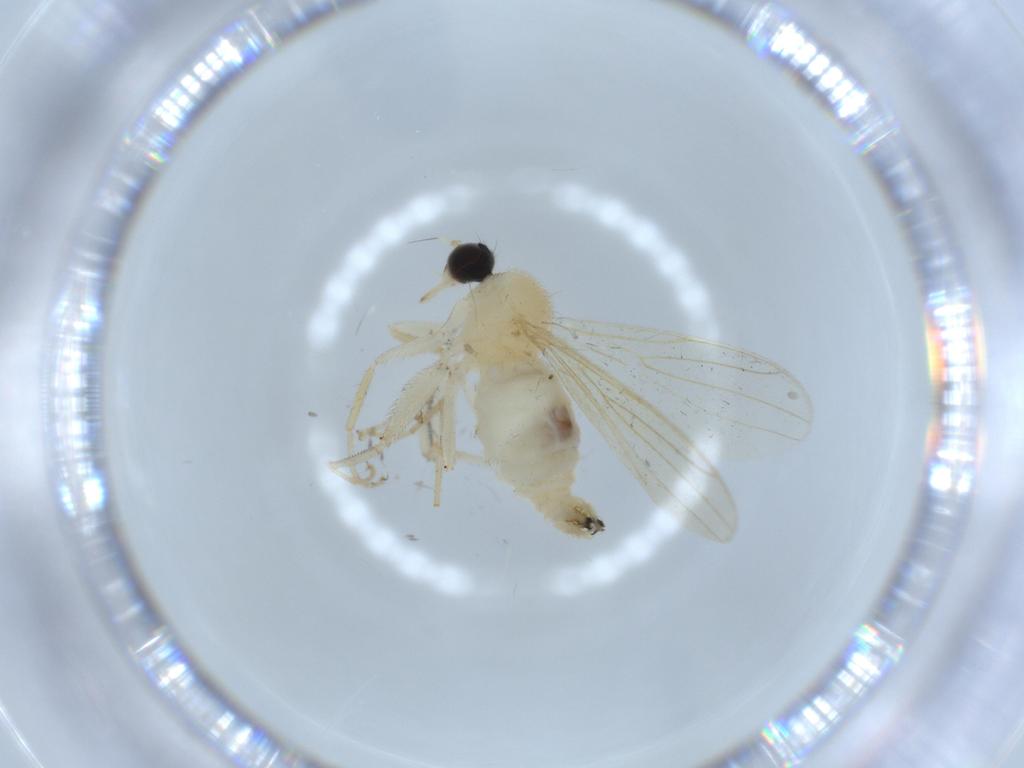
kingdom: Animalia
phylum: Arthropoda
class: Insecta
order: Diptera
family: Hybotidae
